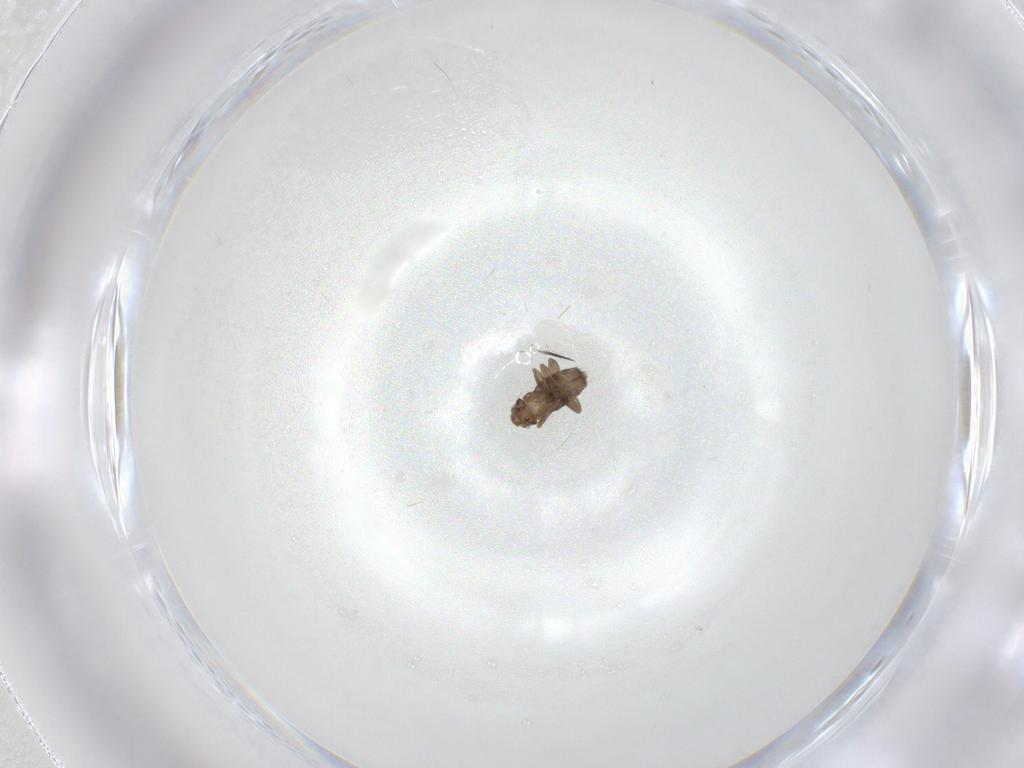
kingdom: Animalia
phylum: Arthropoda
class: Insecta
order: Diptera
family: Ceratopogonidae
